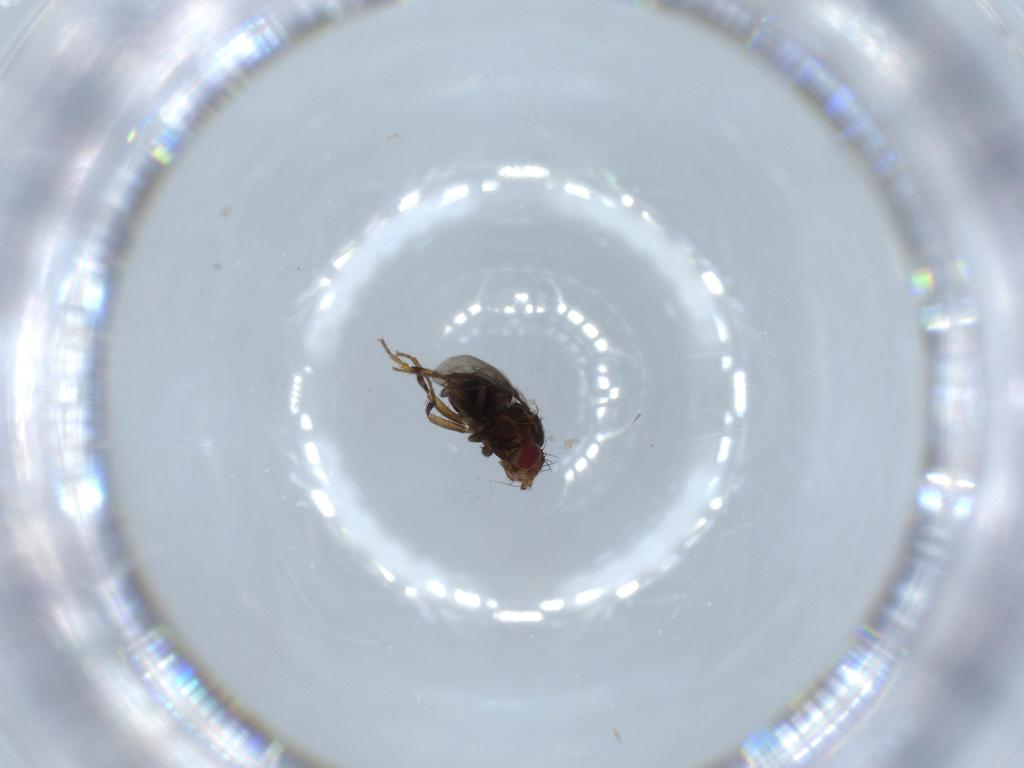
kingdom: Animalia
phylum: Arthropoda
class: Insecta
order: Diptera
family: Sphaeroceridae
